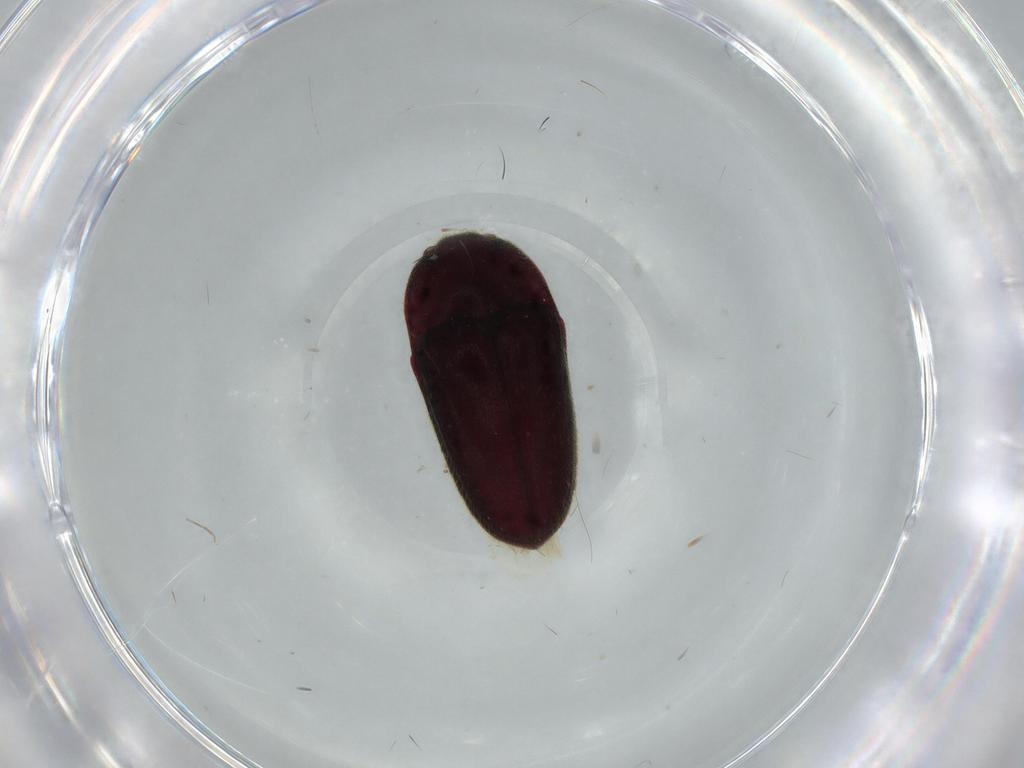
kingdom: Animalia
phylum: Arthropoda
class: Insecta
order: Coleoptera
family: Throscidae
